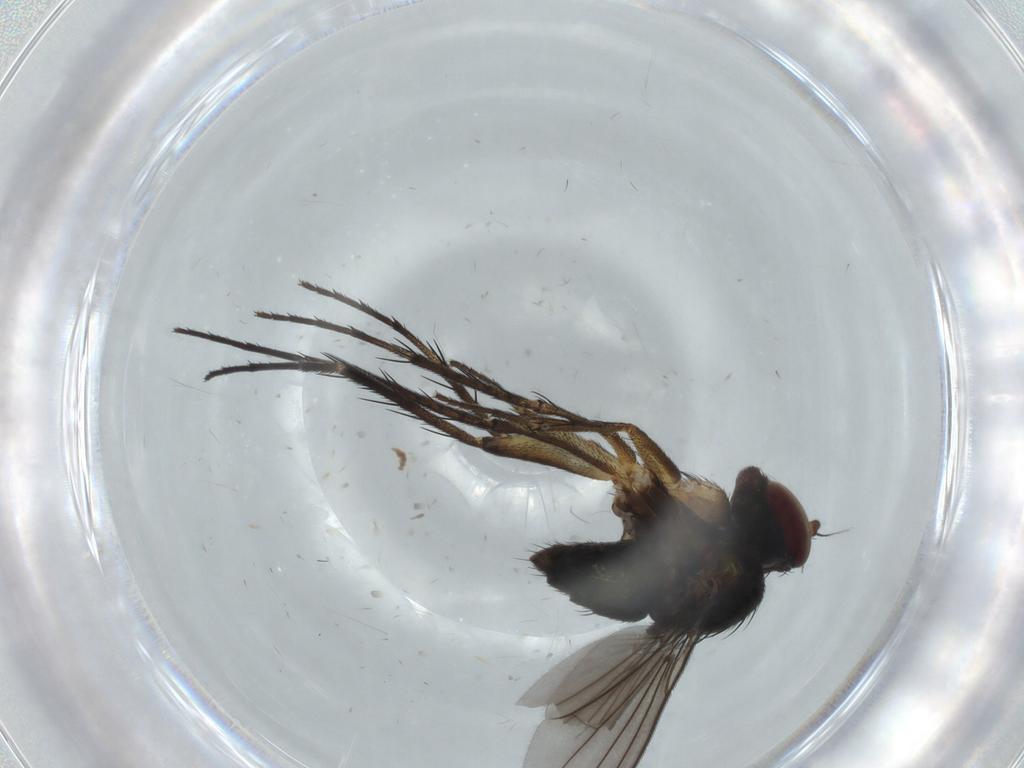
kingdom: Animalia
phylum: Arthropoda
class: Insecta
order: Diptera
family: Dolichopodidae
